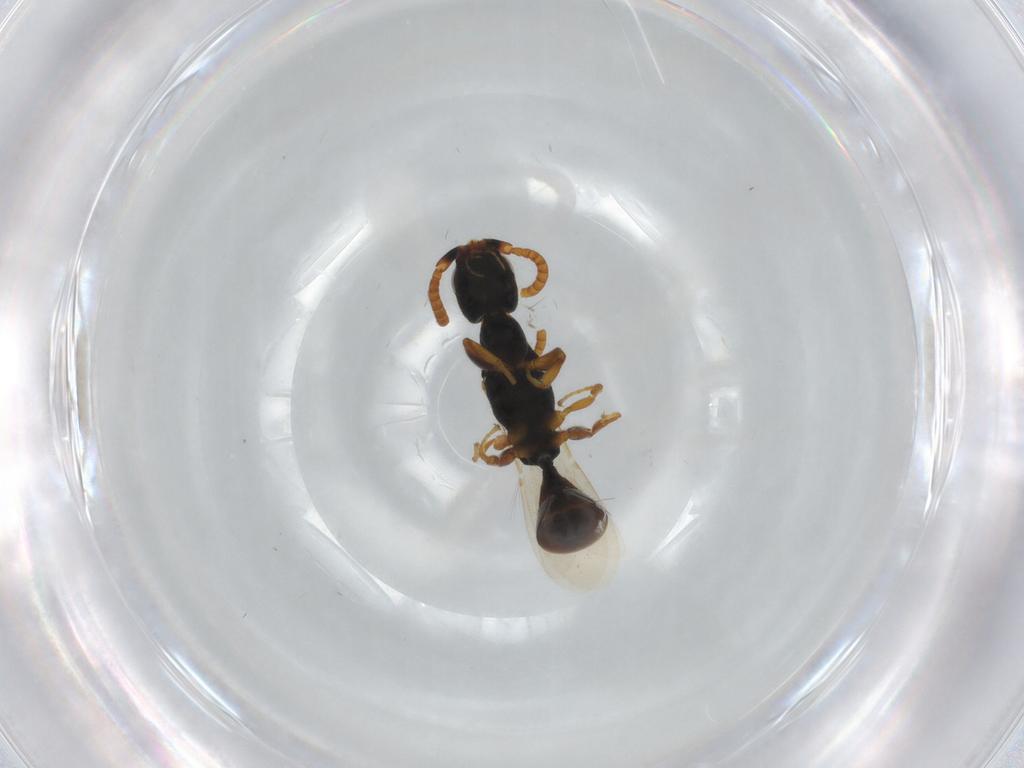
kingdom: Animalia
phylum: Arthropoda
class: Insecta
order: Hymenoptera
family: Bethylidae
